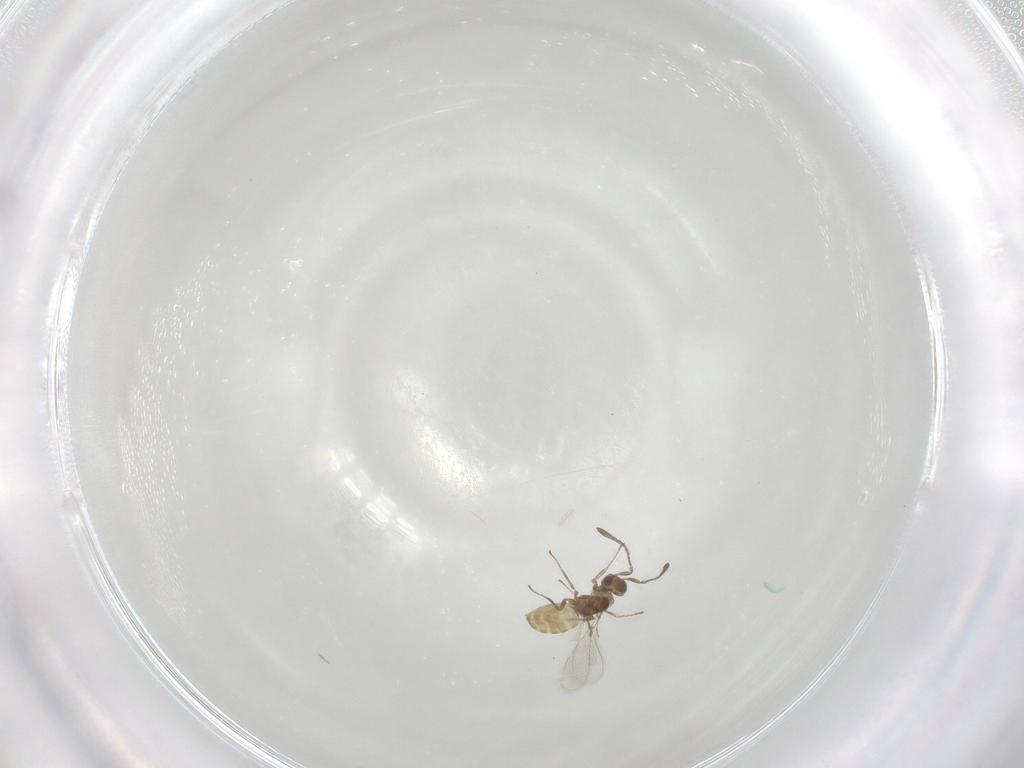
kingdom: Animalia
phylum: Arthropoda
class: Insecta
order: Hymenoptera
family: Mymaridae
